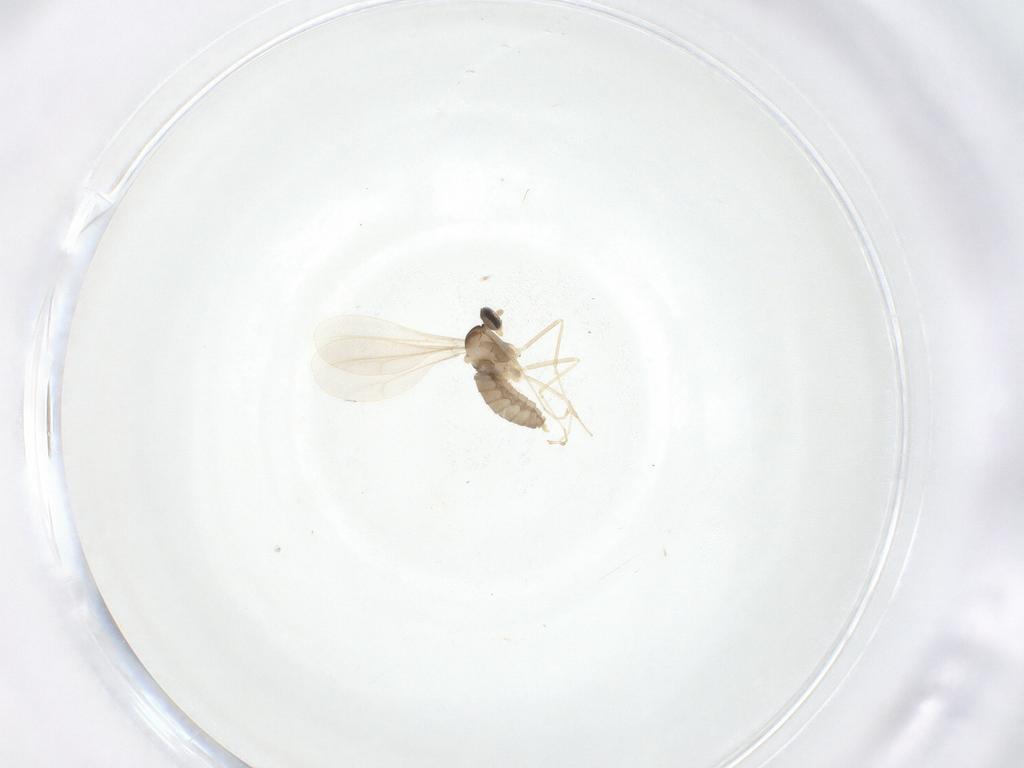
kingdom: Animalia
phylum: Arthropoda
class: Insecta
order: Diptera
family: Cecidomyiidae
